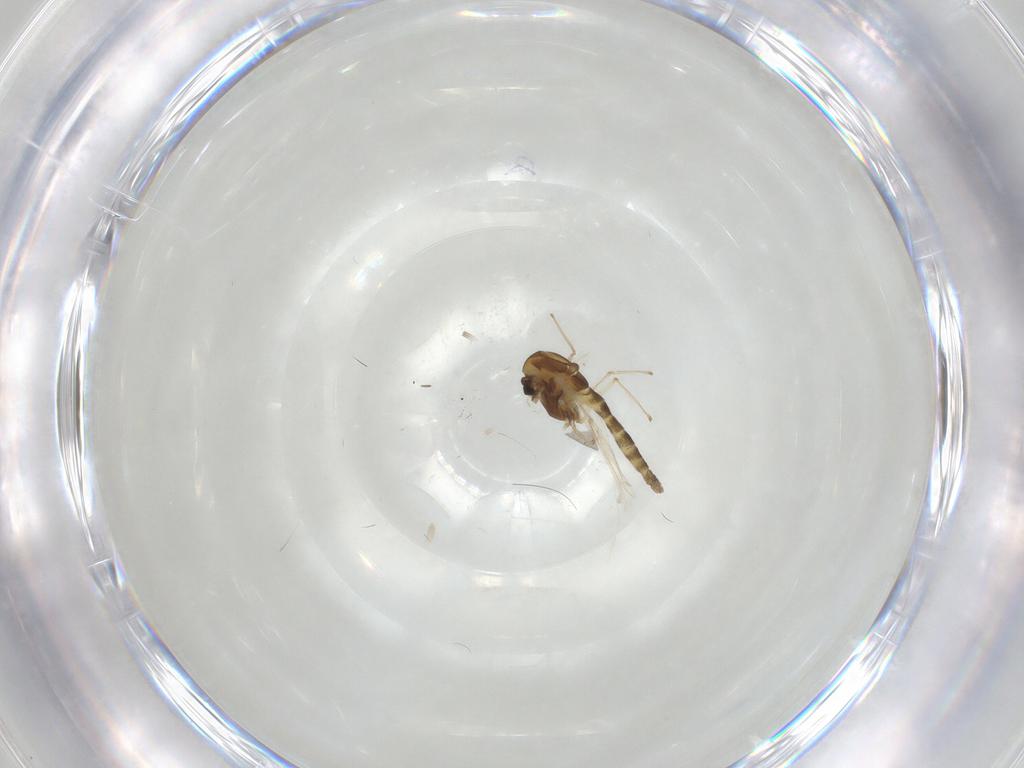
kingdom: Animalia
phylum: Arthropoda
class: Insecta
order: Diptera
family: Chironomidae
